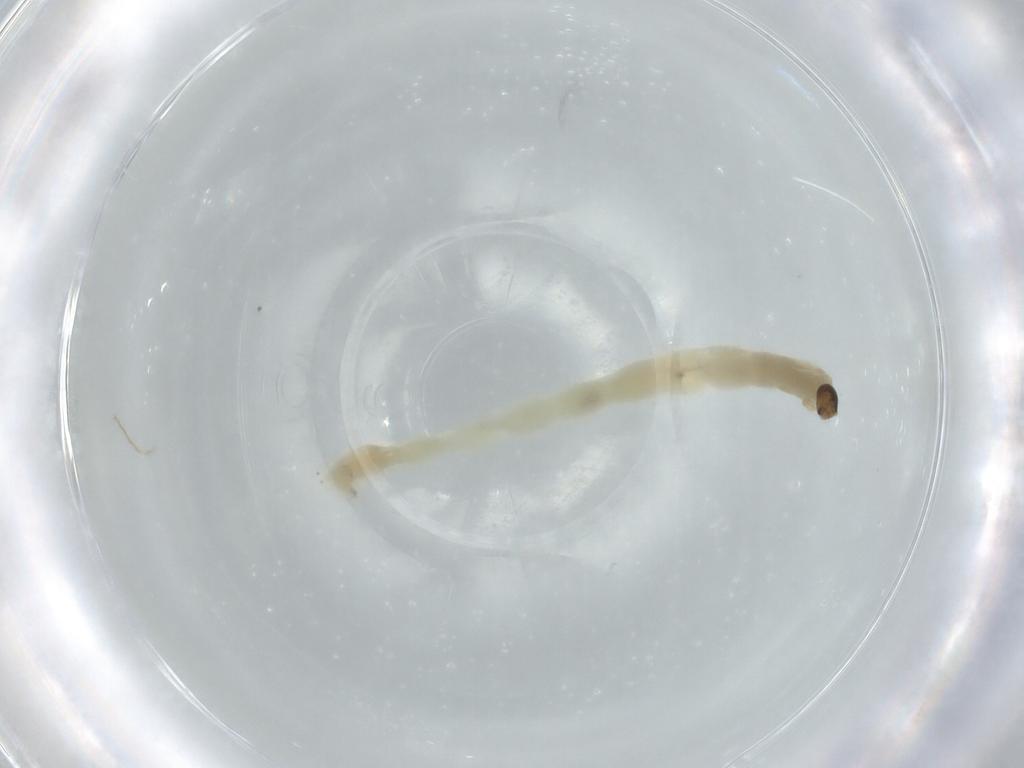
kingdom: Animalia
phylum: Arthropoda
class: Insecta
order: Diptera
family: Chironomidae
